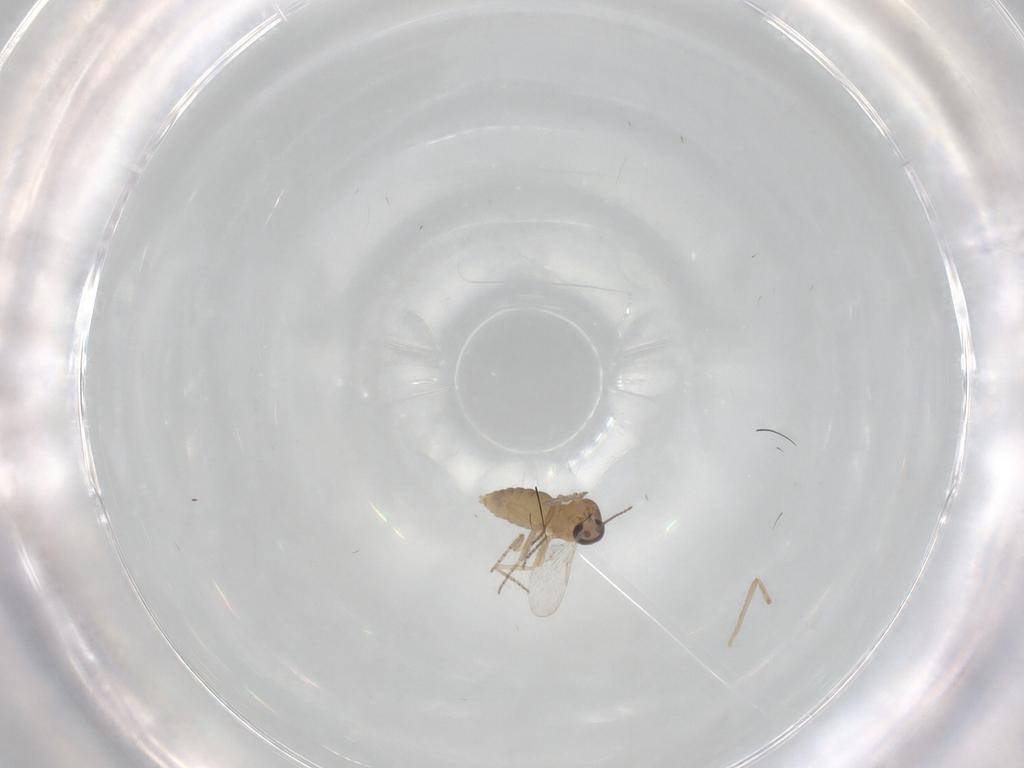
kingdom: Animalia
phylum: Arthropoda
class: Insecta
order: Diptera
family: Ceratopogonidae
